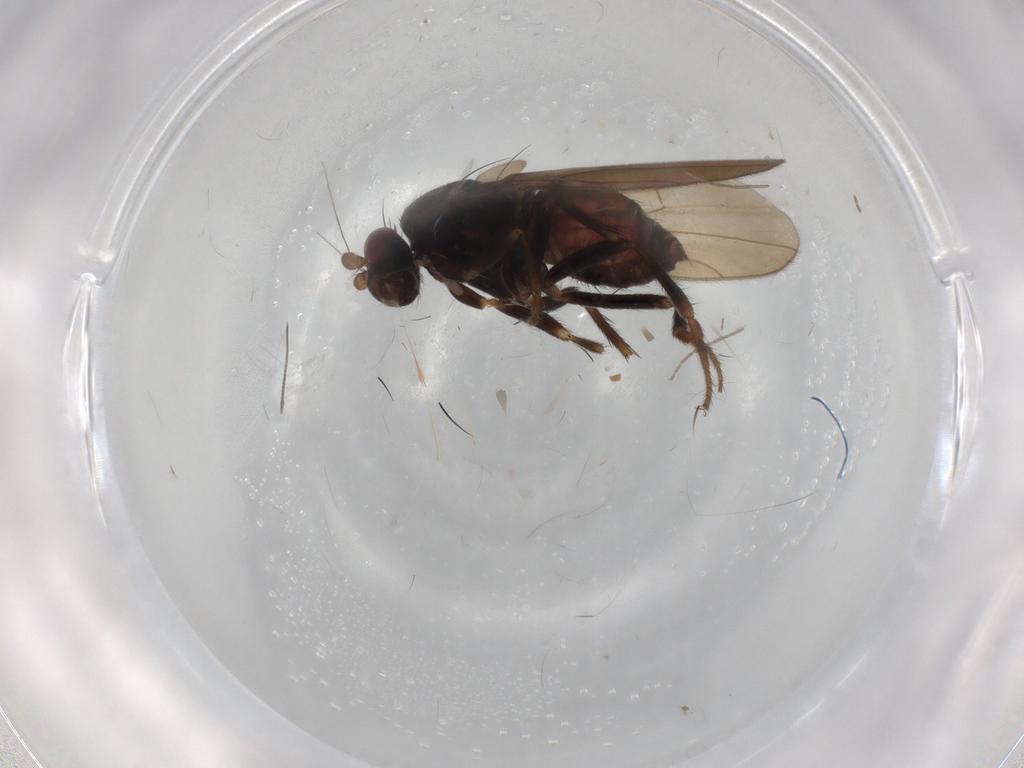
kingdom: Animalia
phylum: Arthropoda
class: Insecta
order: Diptera
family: Sphaeroceridae
